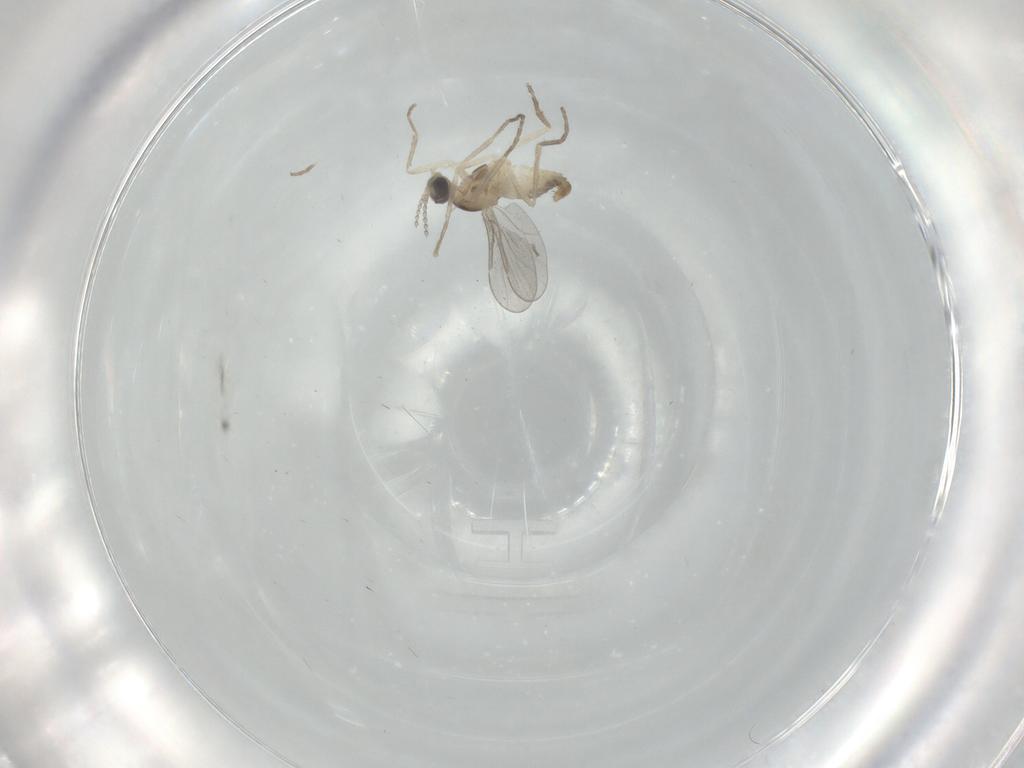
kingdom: Animalia
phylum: Arthropoda
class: Insecta
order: Diptera
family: Cecidomyiidae
